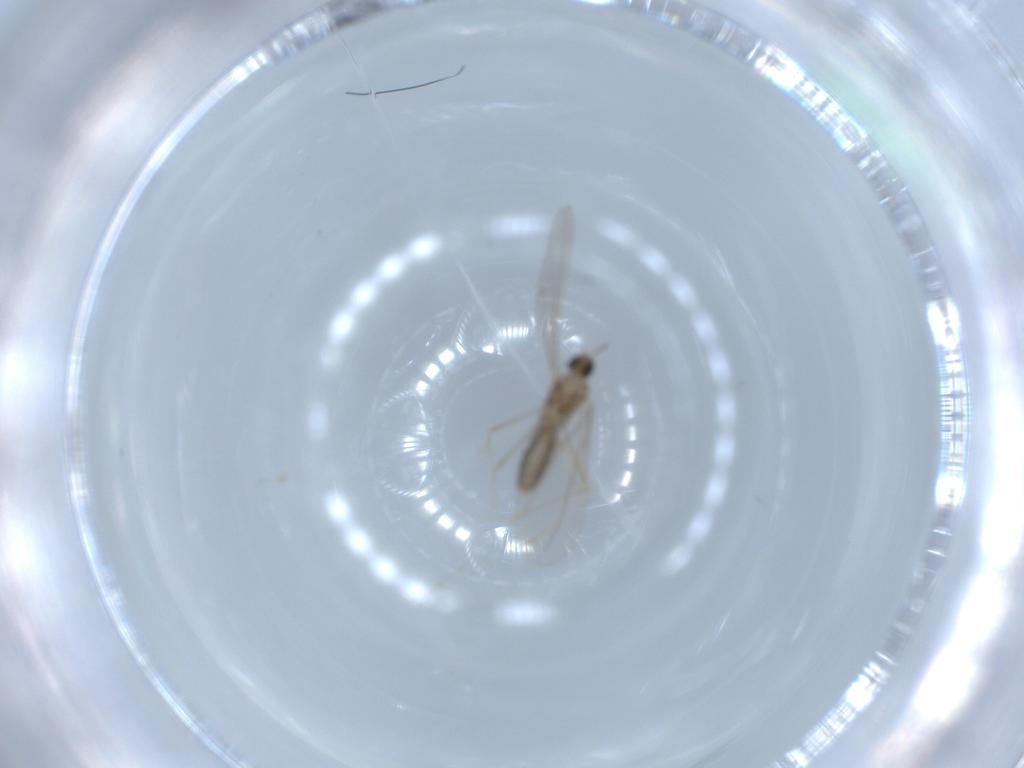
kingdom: Animalia
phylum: Arthropoda
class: Insecta
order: Diptera
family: Cecidomyiidae
